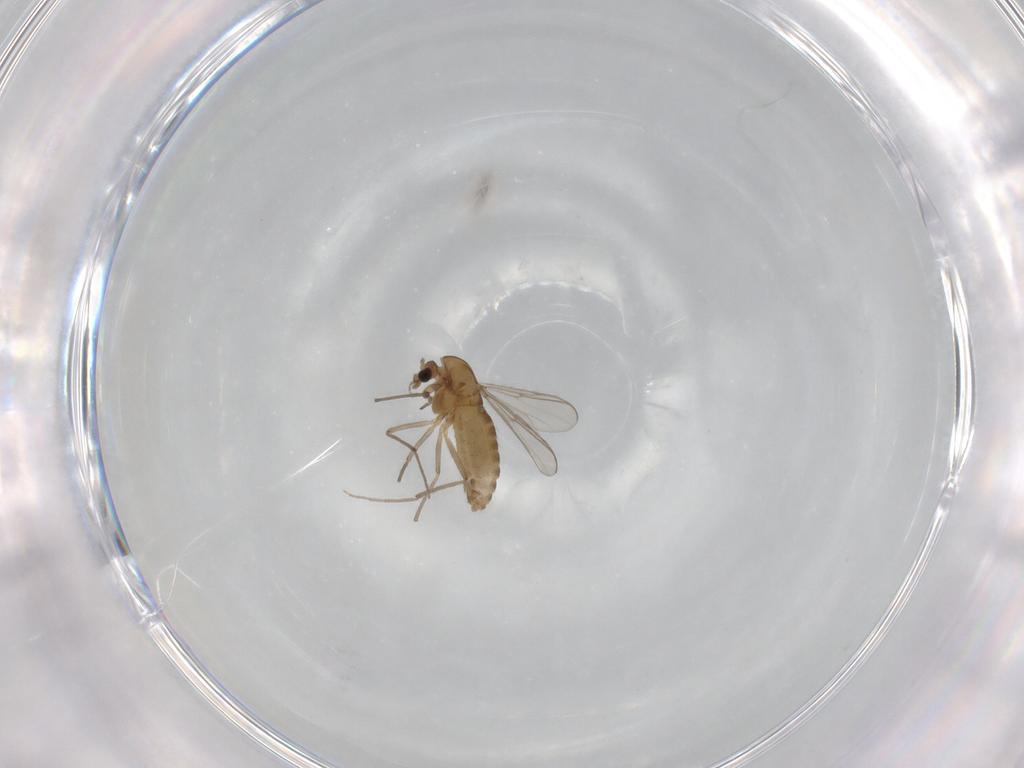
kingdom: Animalia
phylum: Arthropoda
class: Insecta
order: Diptera
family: Chironomidae
